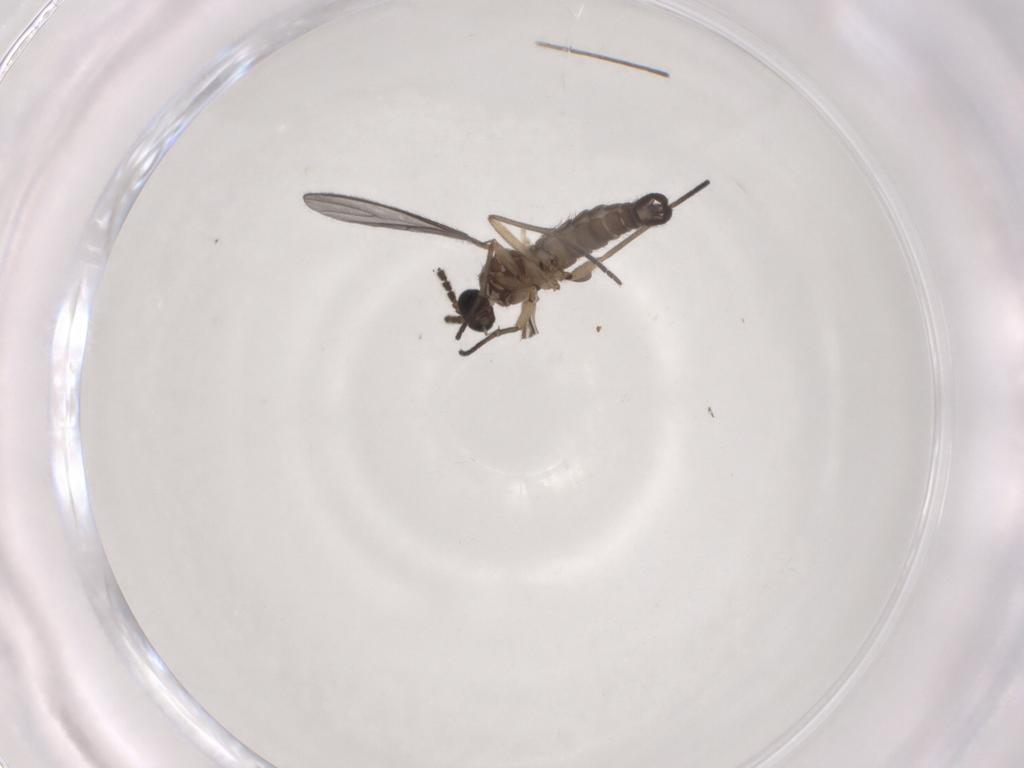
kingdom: Animalia
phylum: Arthropoda
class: Insecta
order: Diptera
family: Sciaridae
